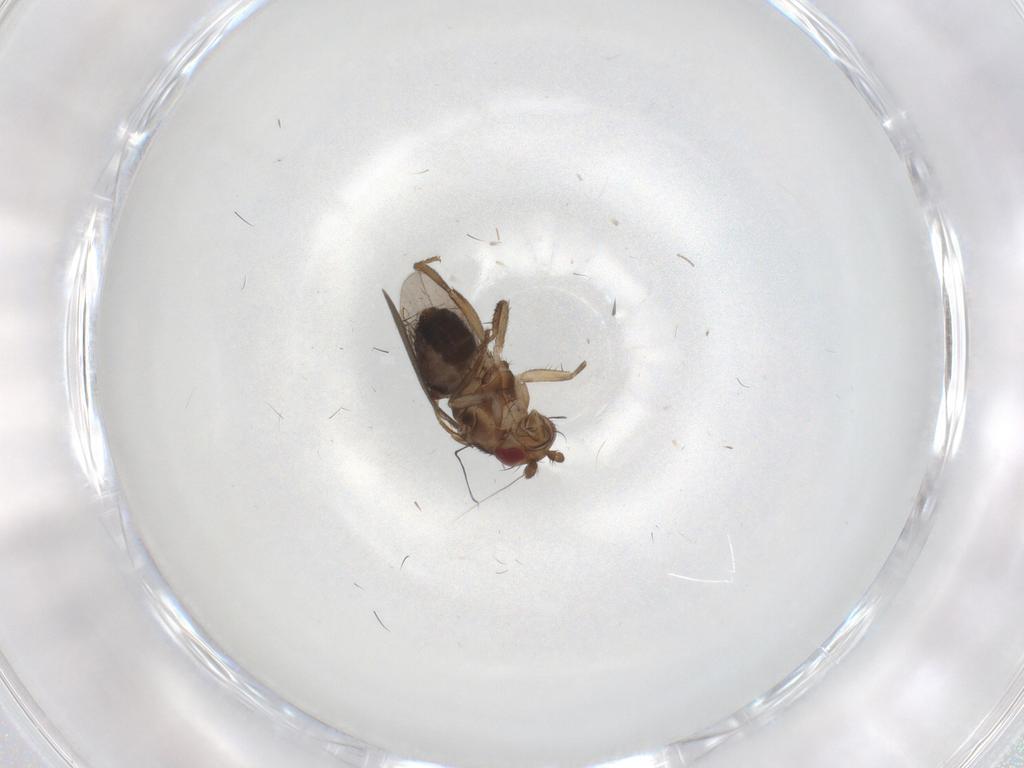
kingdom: Animalia
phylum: Arthropoda
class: Insecta
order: Diptera
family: Sphaeroceridae
